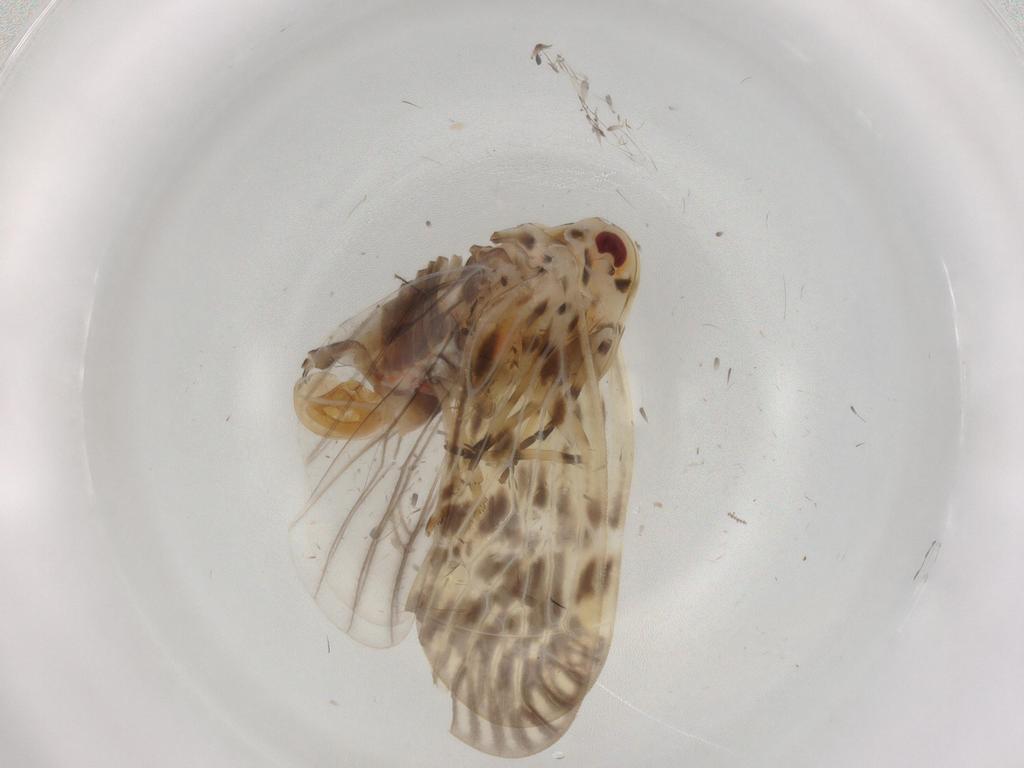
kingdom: Animalia
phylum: Arthropoda
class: Insecta
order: Hemiptera
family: Derbidae
